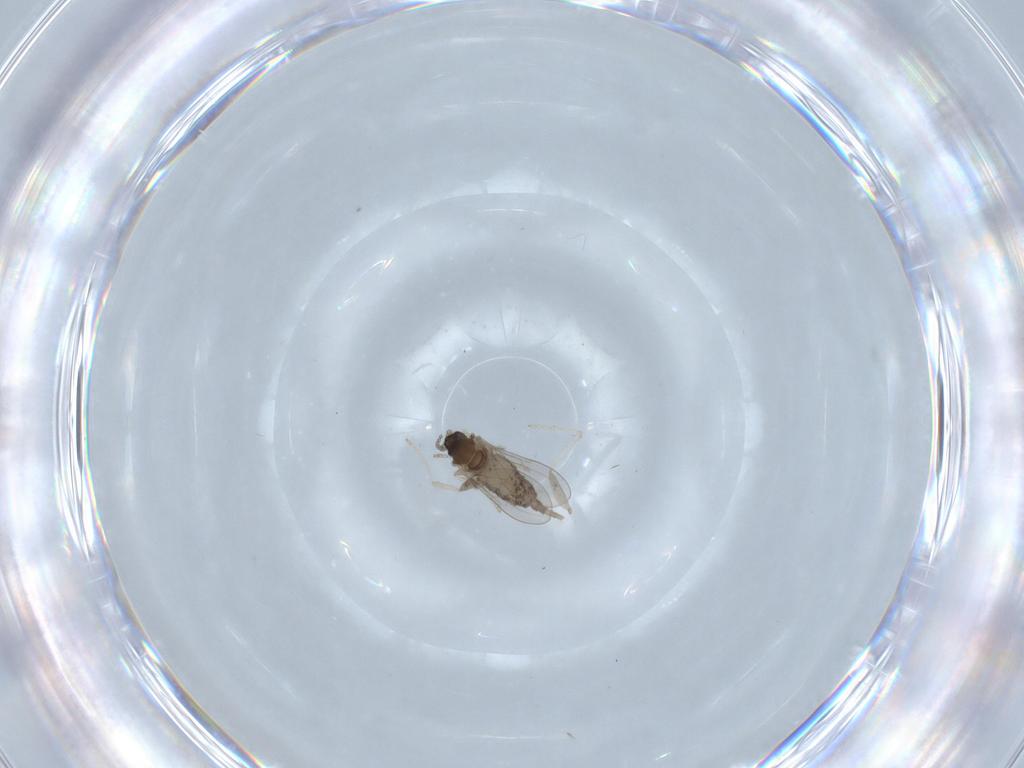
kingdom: Animalia
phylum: Arthropoda
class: Insecta
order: Diptera
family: Cecidomyiidae
